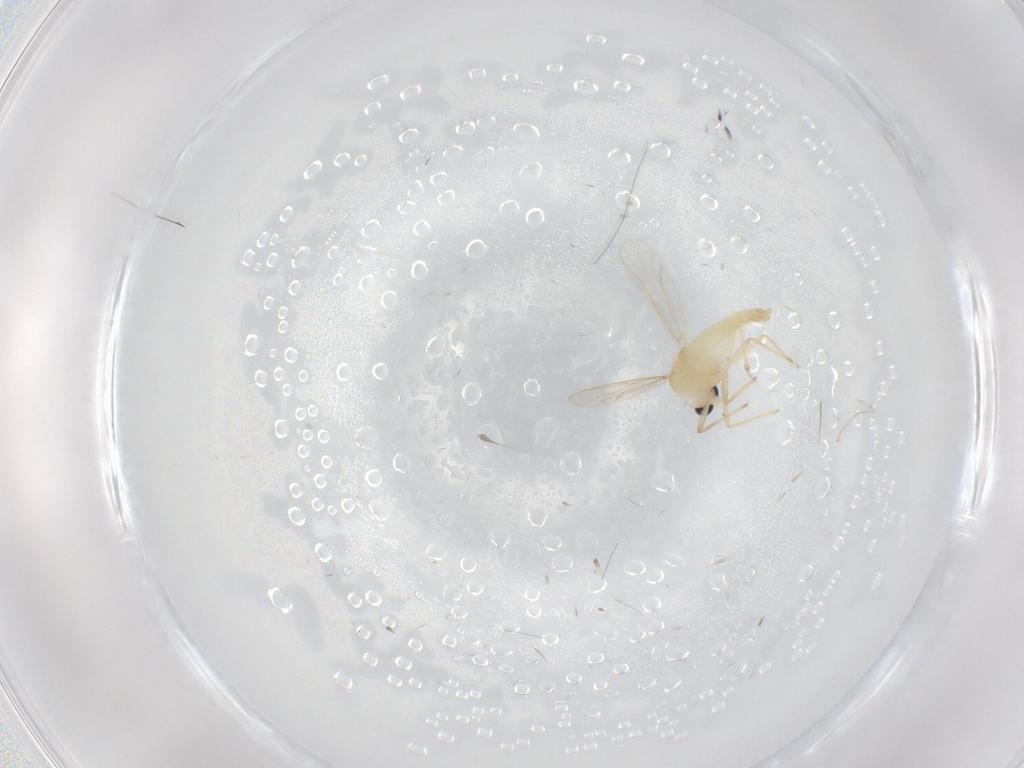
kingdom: Animalia
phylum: Arthropoda
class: Insecta
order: Diptera
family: Chironomidae
